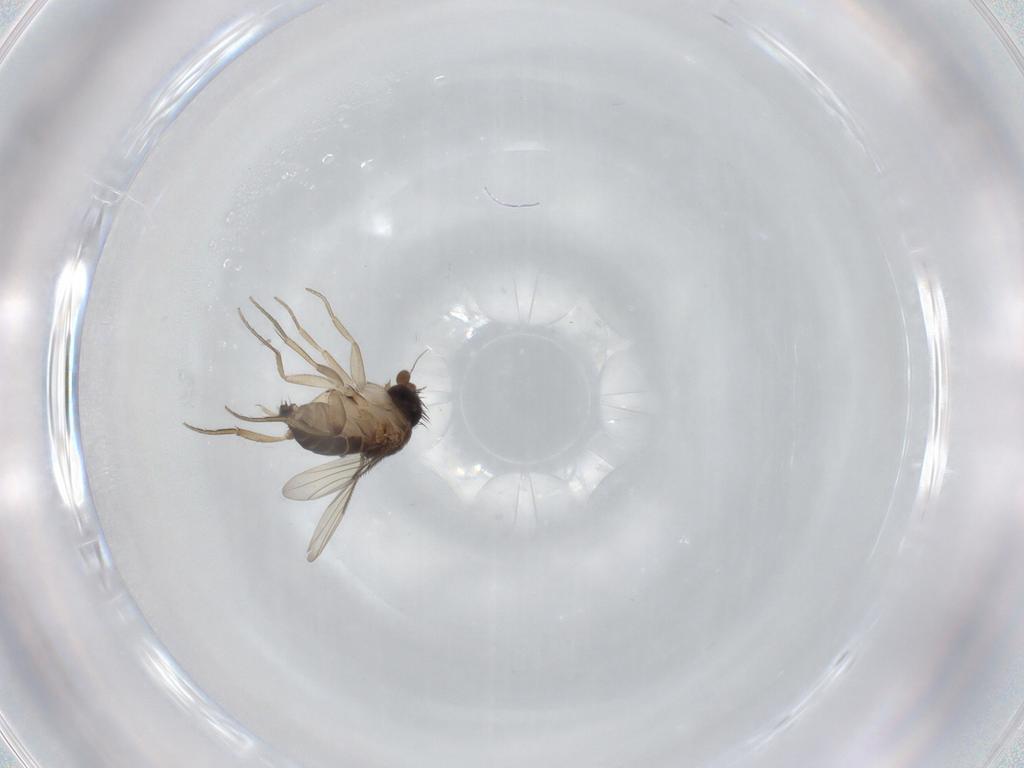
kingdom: Animalia
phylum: Arthropoda
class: Insecta
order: Diptera
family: Phoridae
